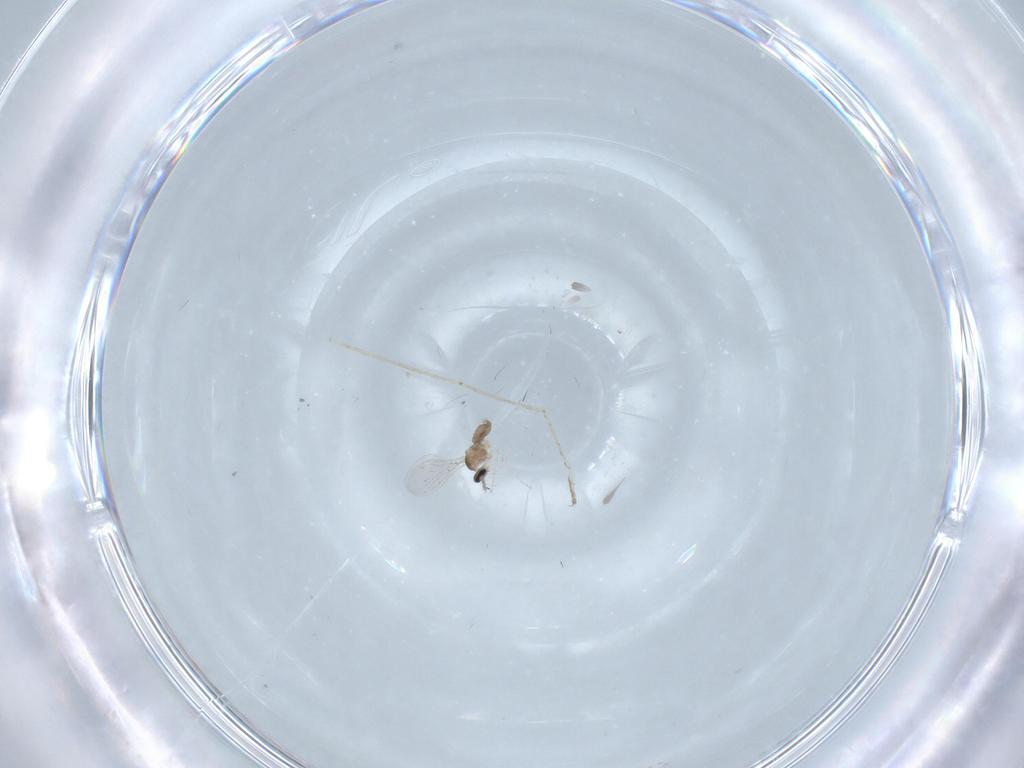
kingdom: Animalia
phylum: Arthropoda
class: Insecta
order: Diptera
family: Cecidomyiidae
